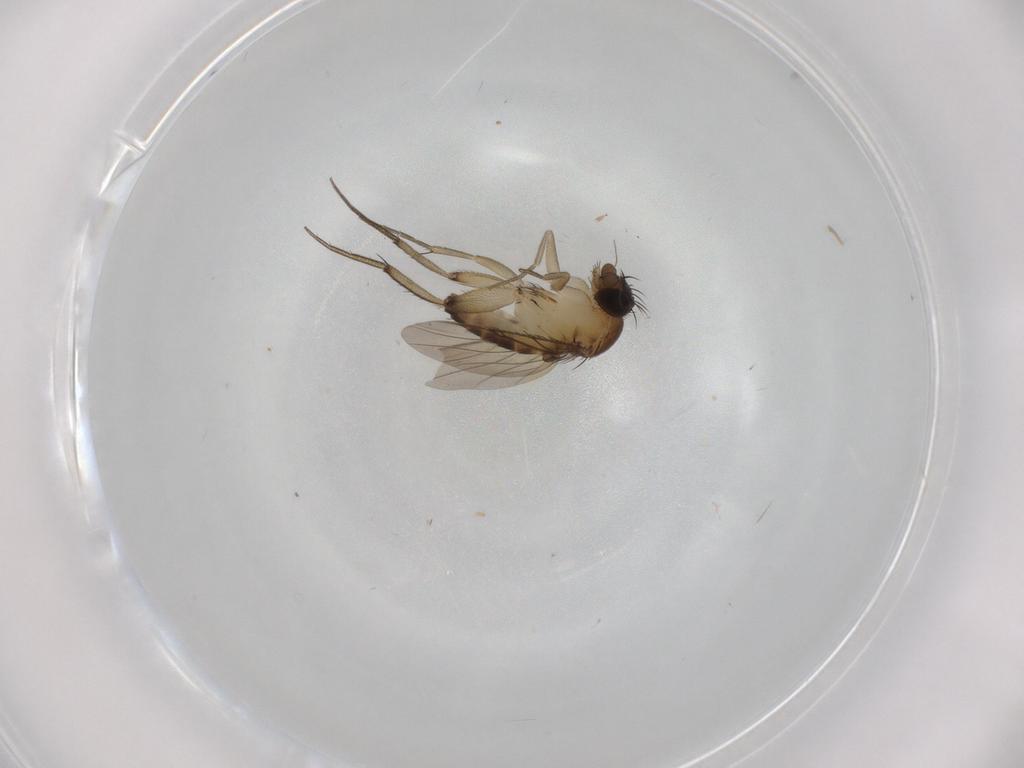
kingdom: Animalia
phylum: Arthropoda
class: Insecta
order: Diptera
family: Phoridae
